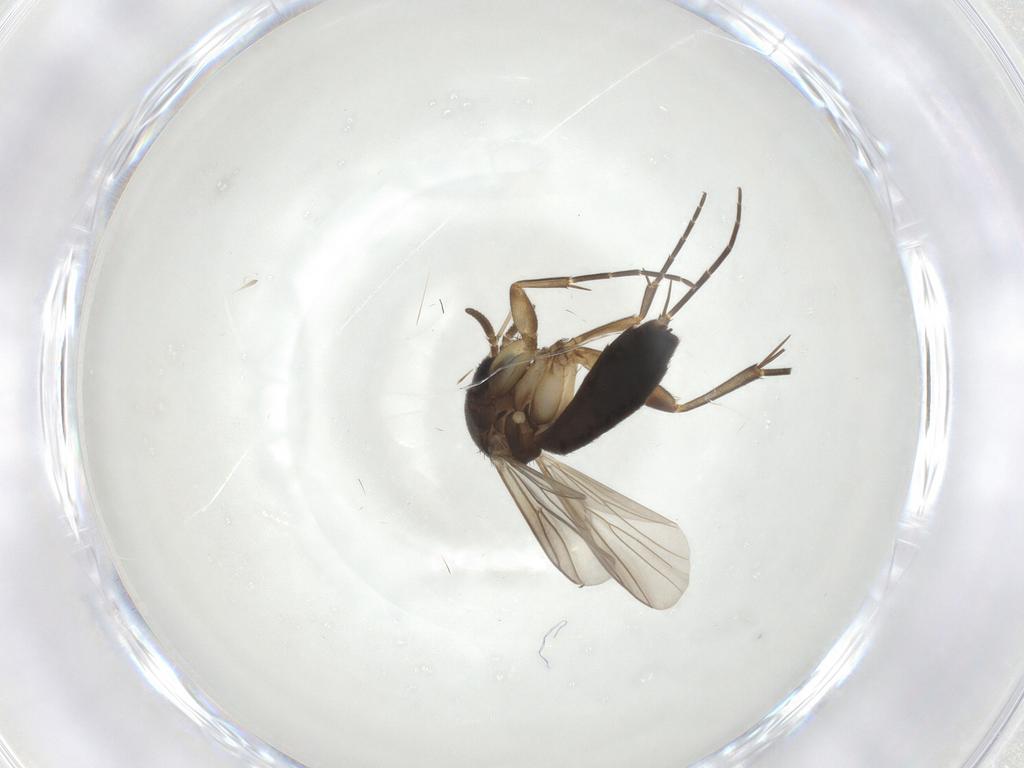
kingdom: Animalia
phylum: Arthropoda
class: Insecta
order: Diptera
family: Mycetophilidae
